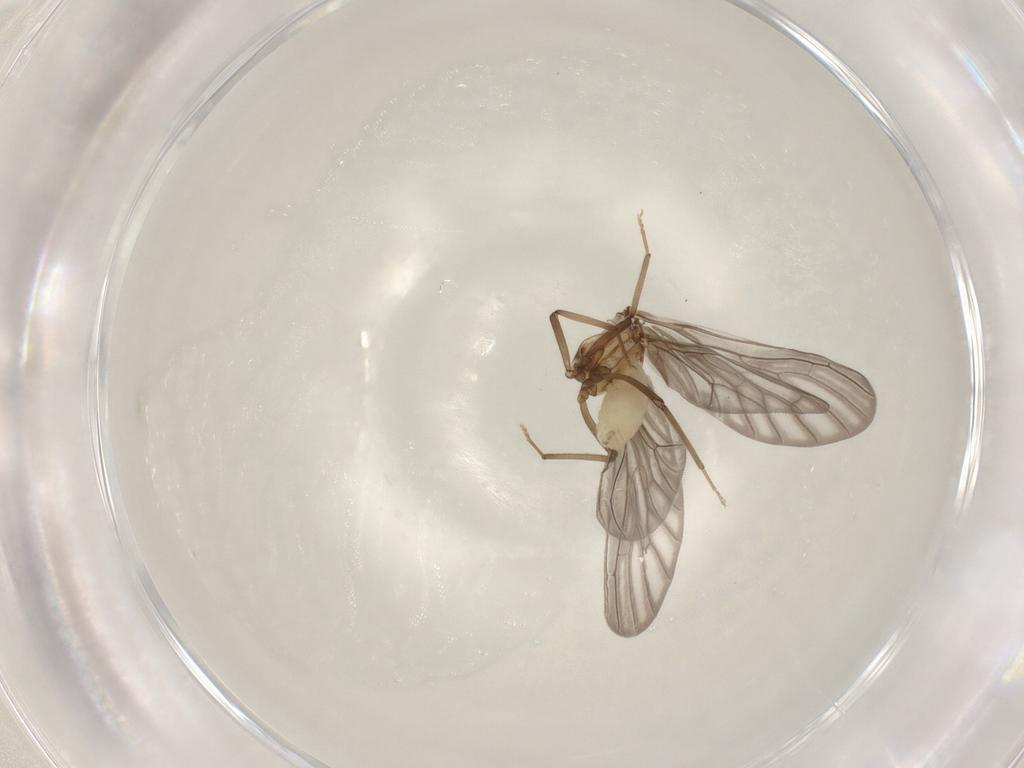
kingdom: Animalia
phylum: Arthropoda
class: Insecta
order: Neuroptera
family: Coniopterygidae
